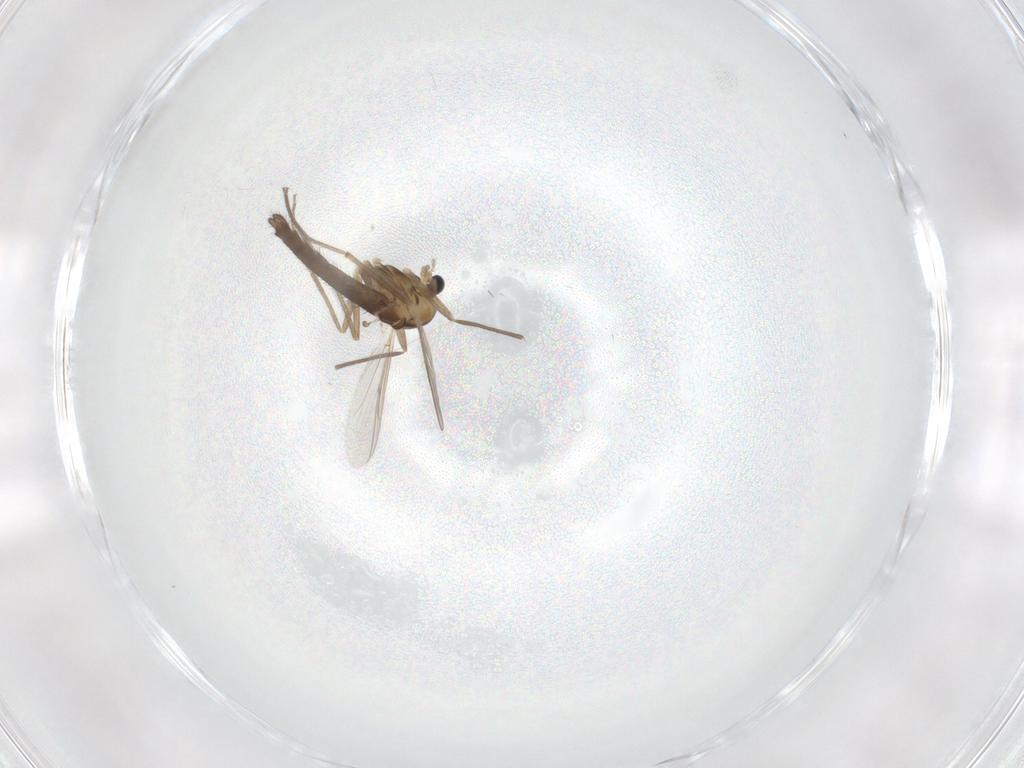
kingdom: Animalia
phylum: Arthropoda
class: Insecta
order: Diptera
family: Chironomidae
